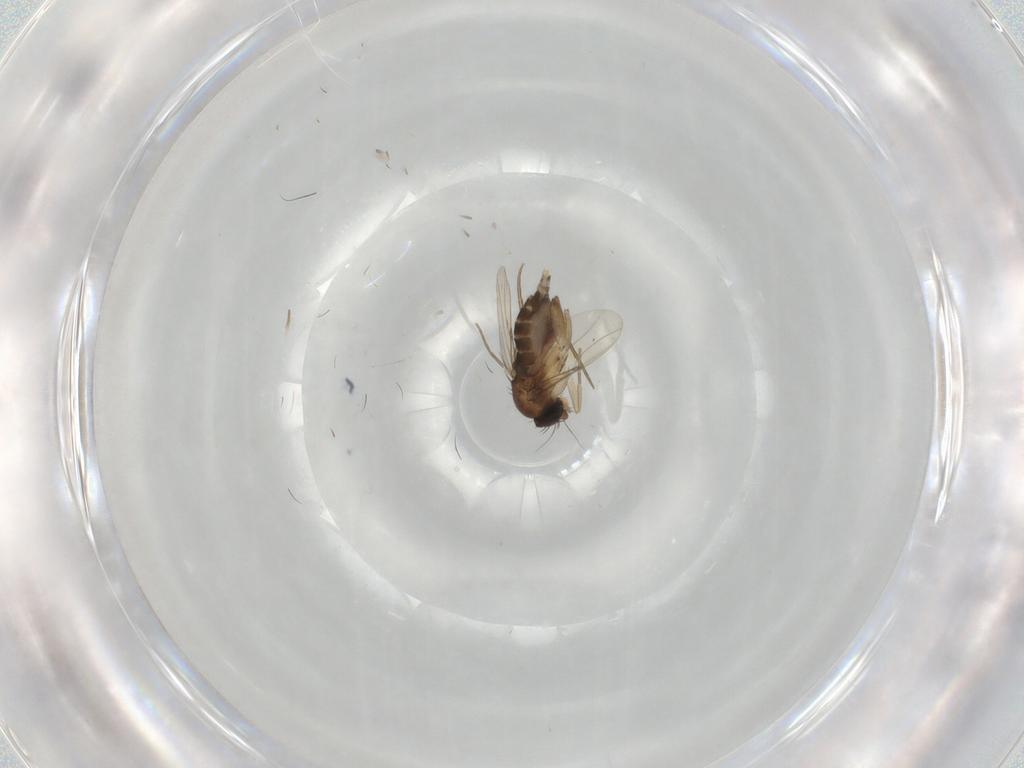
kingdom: Animalia
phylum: Arthropoda
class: Insecta
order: Diptera
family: Phoridae
